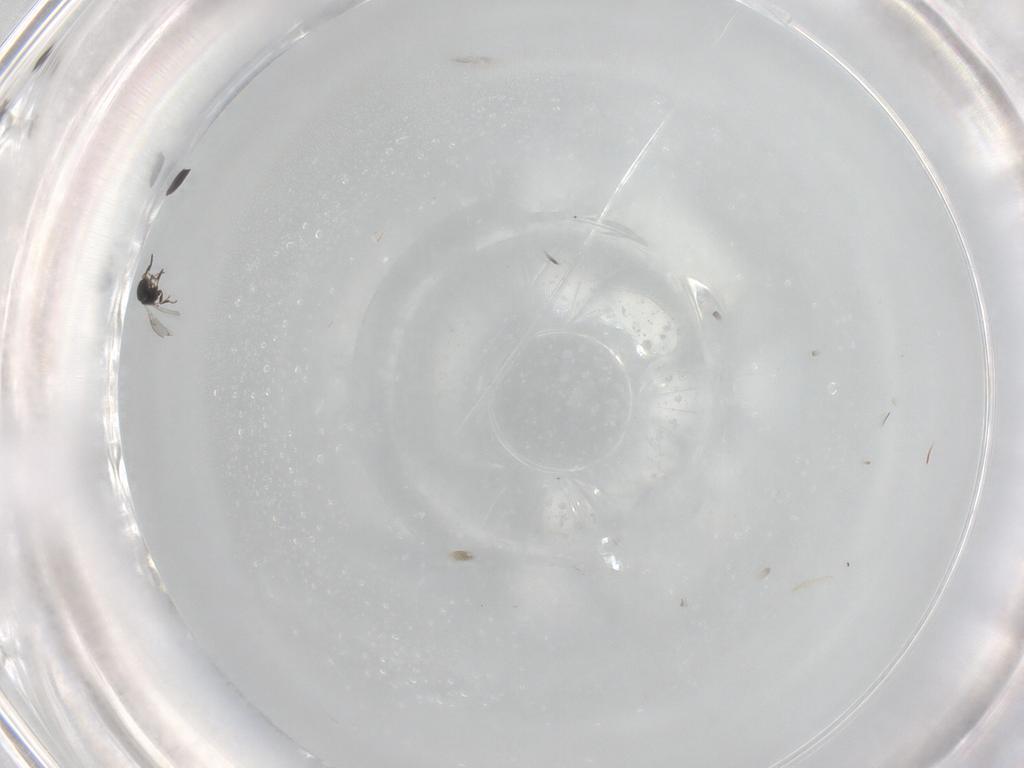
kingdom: Animalia
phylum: Arthropoda
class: Insecta
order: Hymenoptera
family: Scelionidae
